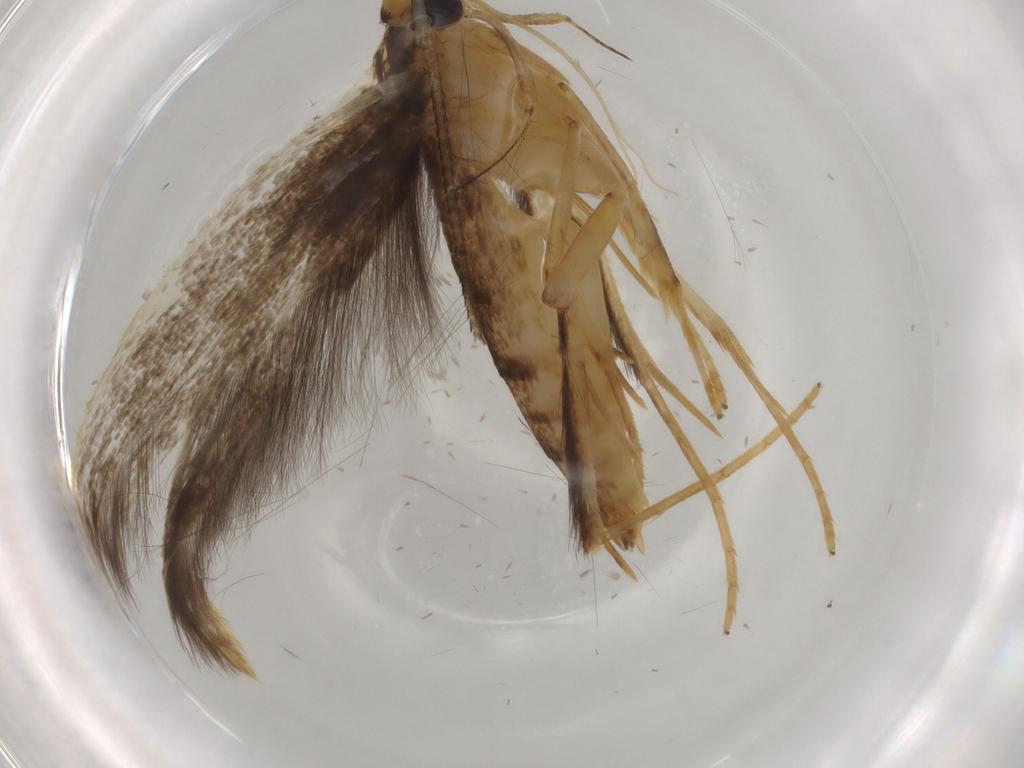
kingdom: Animalia
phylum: Arthropoda
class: Insecta
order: Lepidoptera
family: Pterolonchidae
